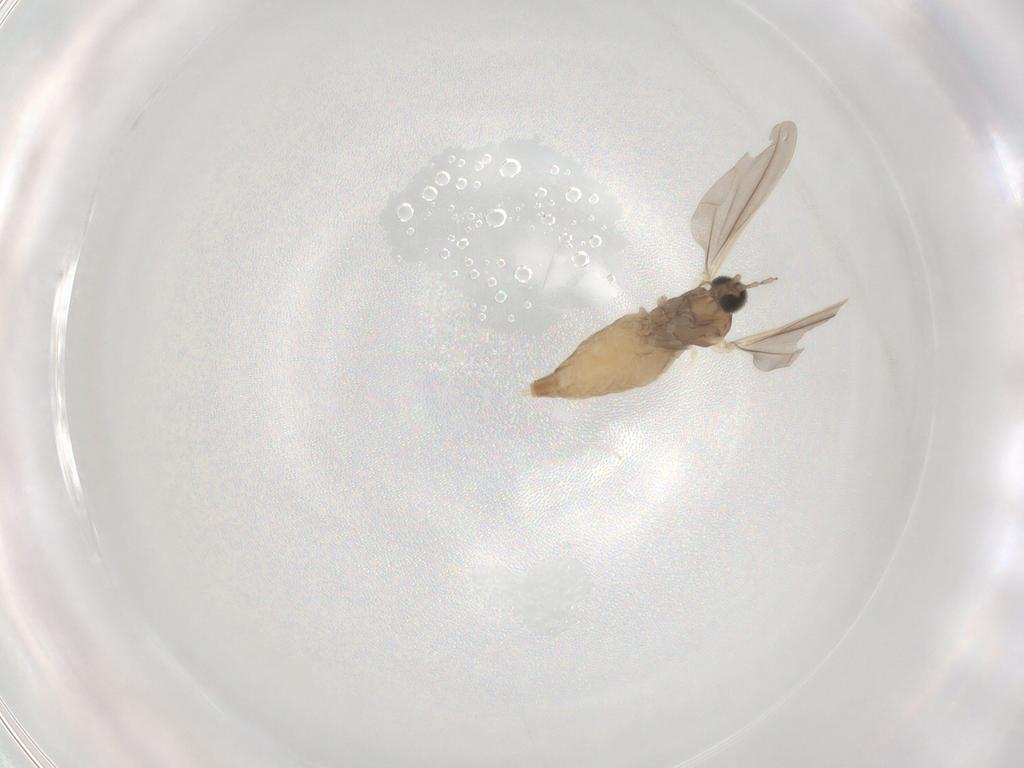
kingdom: Animalia
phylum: Arthropoda
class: Insecta
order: Diptera
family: Cecidomyiidae
